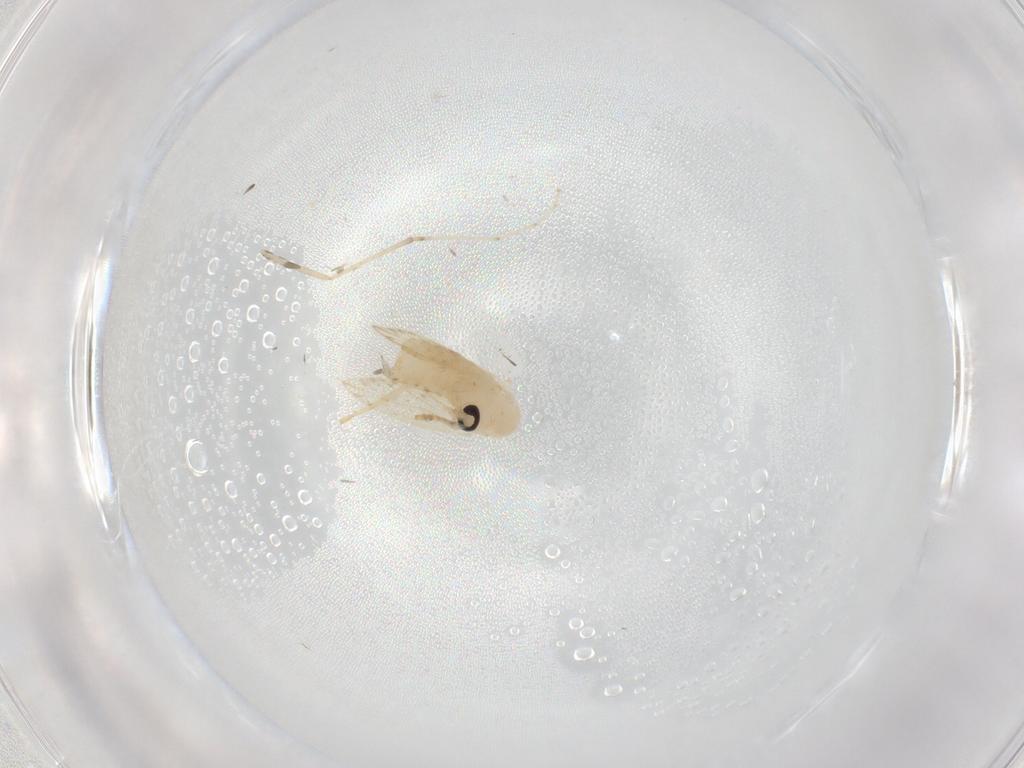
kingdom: Animalia
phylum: Arthropoda
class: Insecta
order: Diptera
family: Psychodidae
